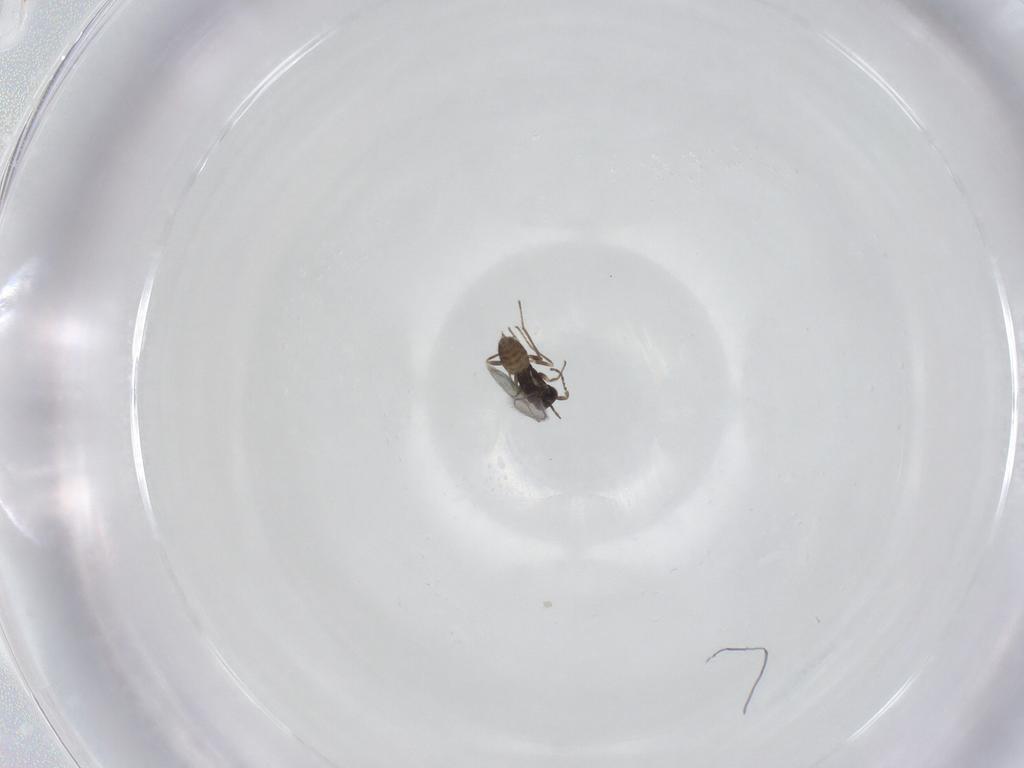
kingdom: Animalia
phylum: Arthropoda
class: Insecta
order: Hymenoptera
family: Mymaridae
